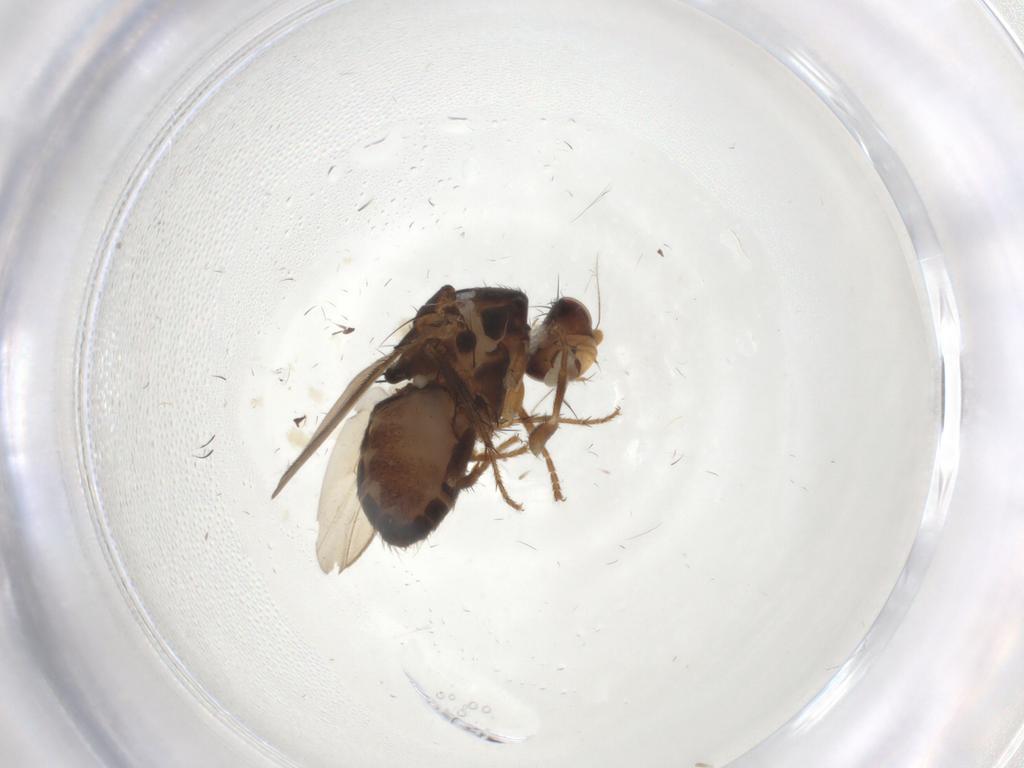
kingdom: Animalia
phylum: Arthropoda
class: Insecta
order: Diptera
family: Sphaeroceridae
